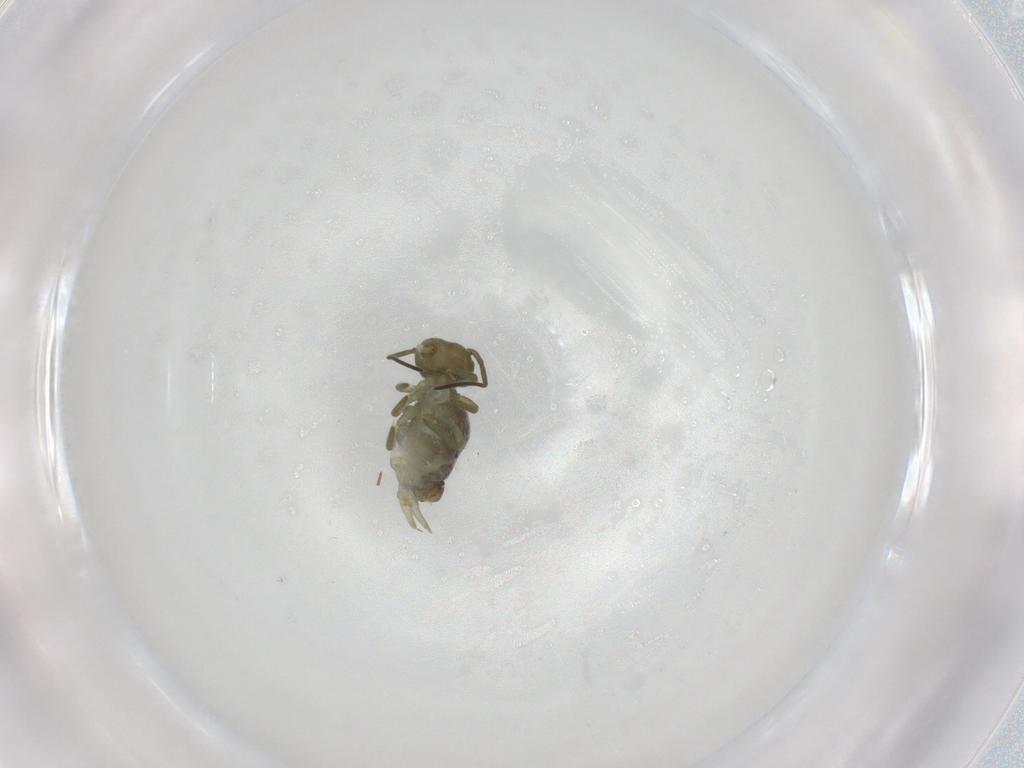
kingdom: Animalia
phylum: Arthropoda
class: Collembola
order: Symphypleona
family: Sminthuridae
